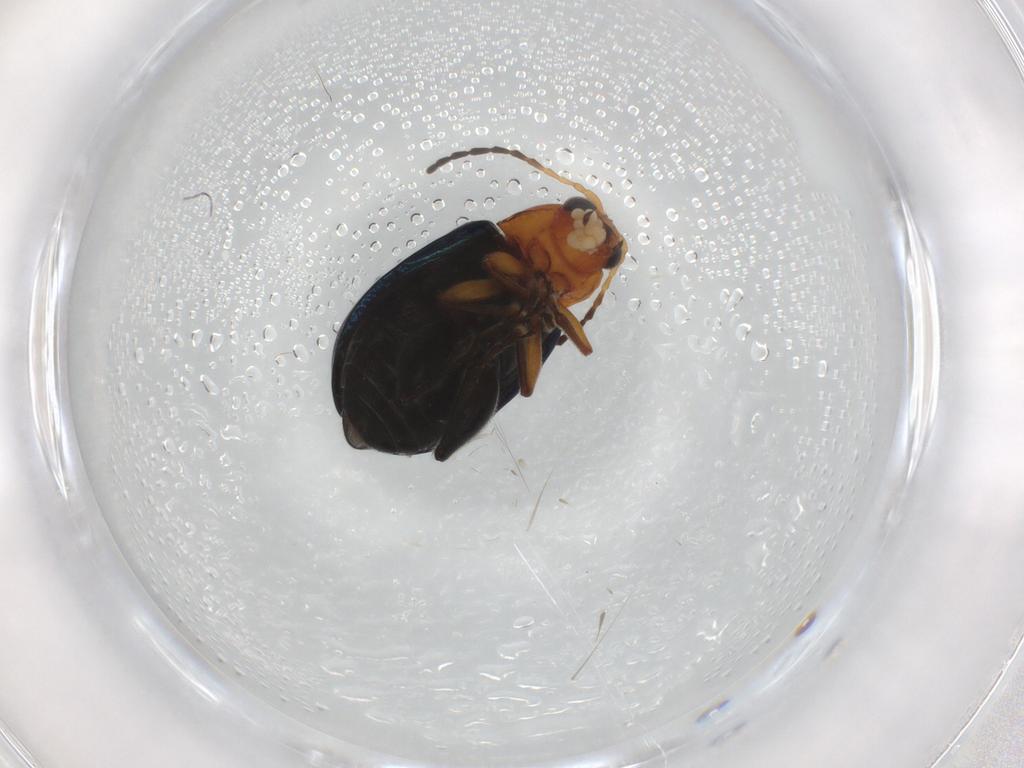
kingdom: Animalia
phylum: Arthropoda
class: Insecta
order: Coleoptera
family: Chrysomelidae
